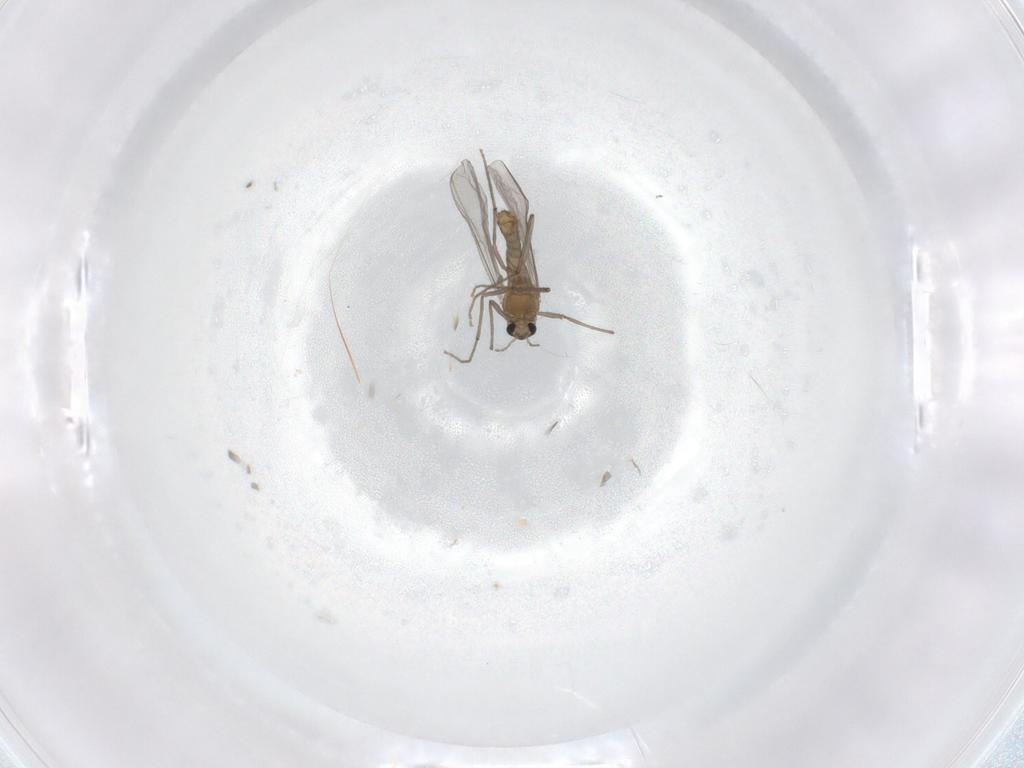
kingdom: Animalia
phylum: Arthropoda
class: Insecta
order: Diptera
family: Chironomidae
